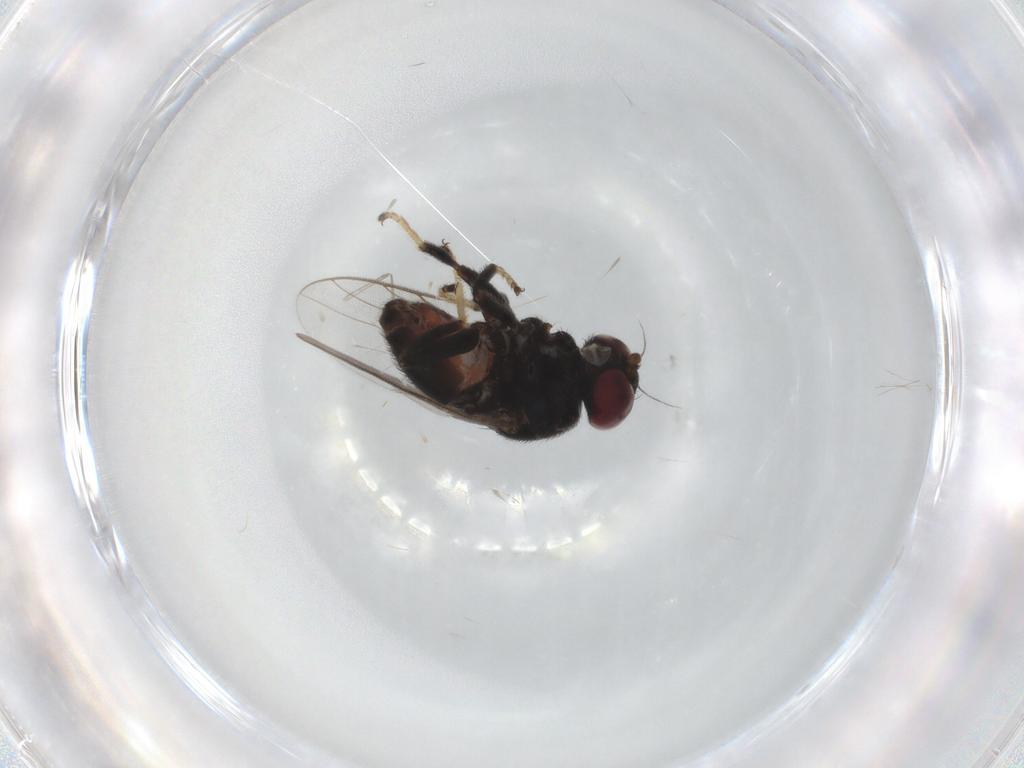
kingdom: Animalia
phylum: Arthropoda
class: Insecta
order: Diptera
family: Chloropidae
